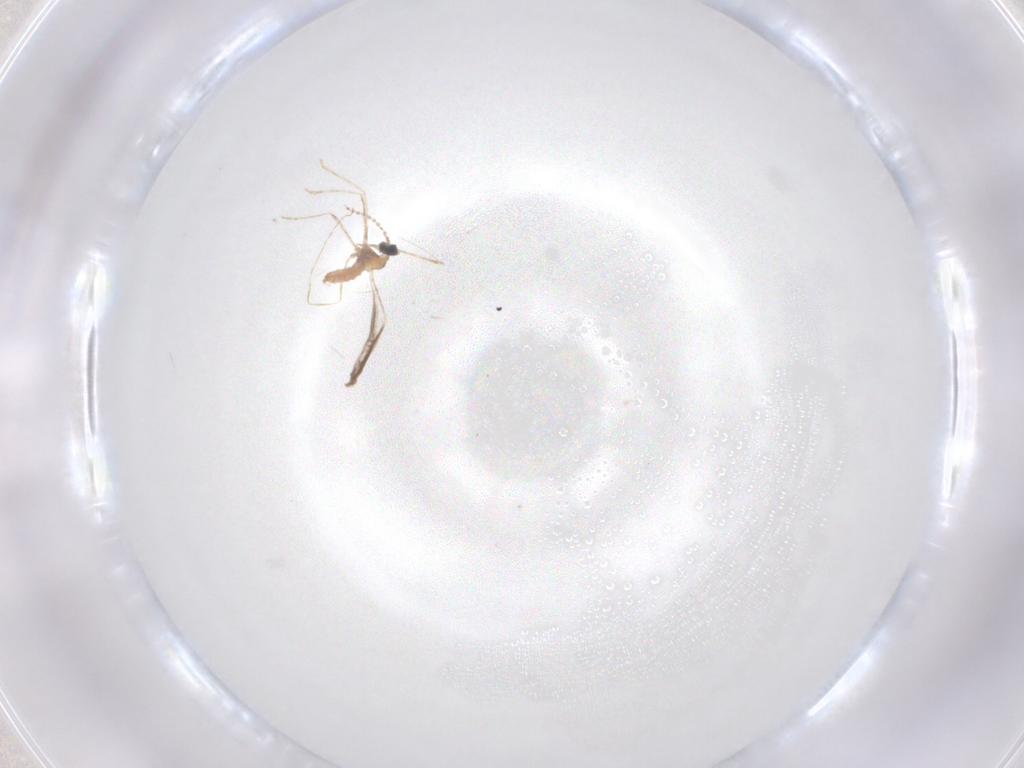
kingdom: Animalia
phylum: Arthropoda
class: Insecta
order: Diptera
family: Cecidomyiidae
